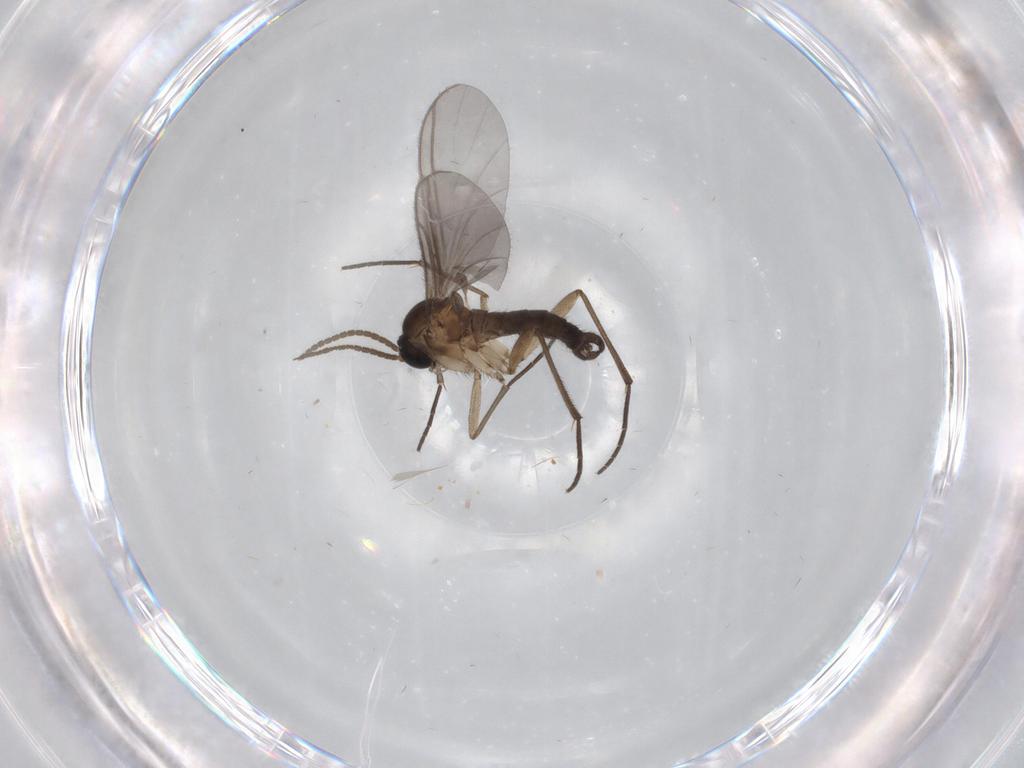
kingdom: Animalia
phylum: Arthropoda
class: Insecta
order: Diptera
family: Sciaridae
